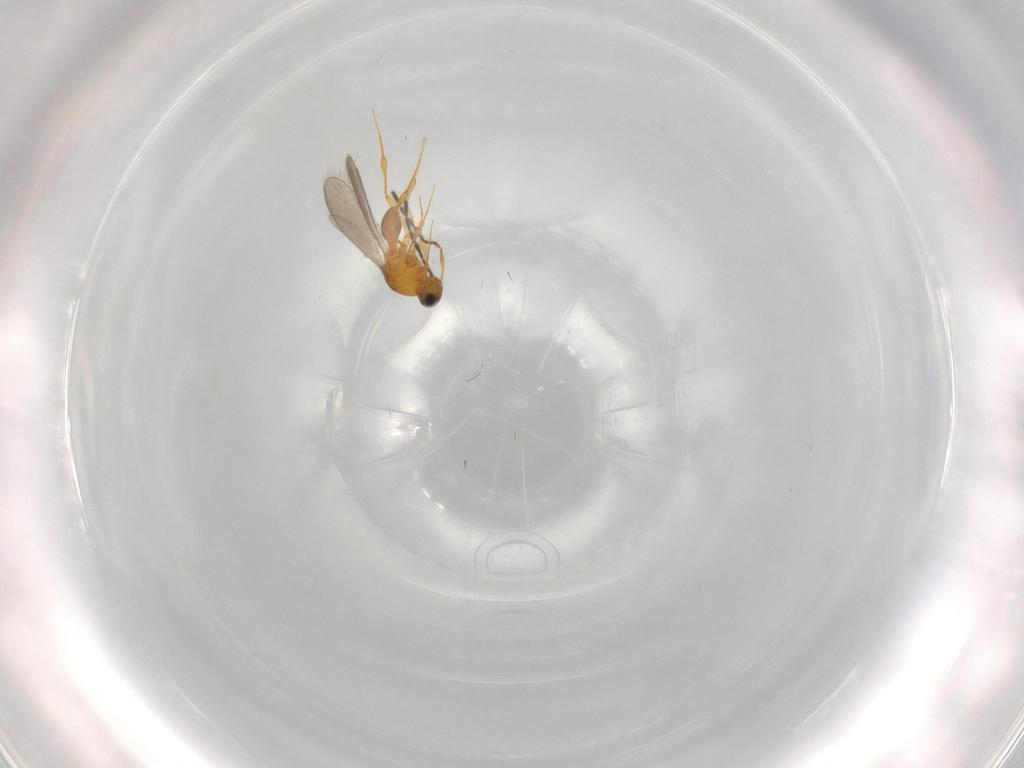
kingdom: Animalia
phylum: Arthropoda
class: Insecta
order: Hymenoptera
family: Platygastridae
